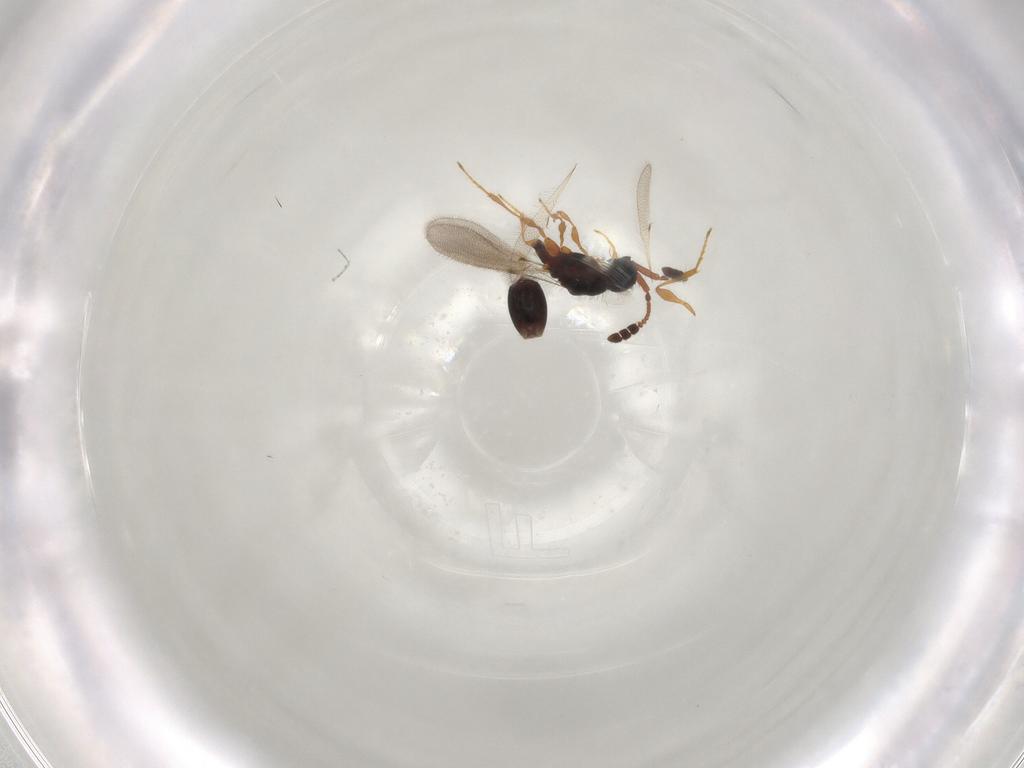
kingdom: Animalia
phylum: Arthropoda
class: Insecta
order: Hymenoptera
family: Diapriidae
